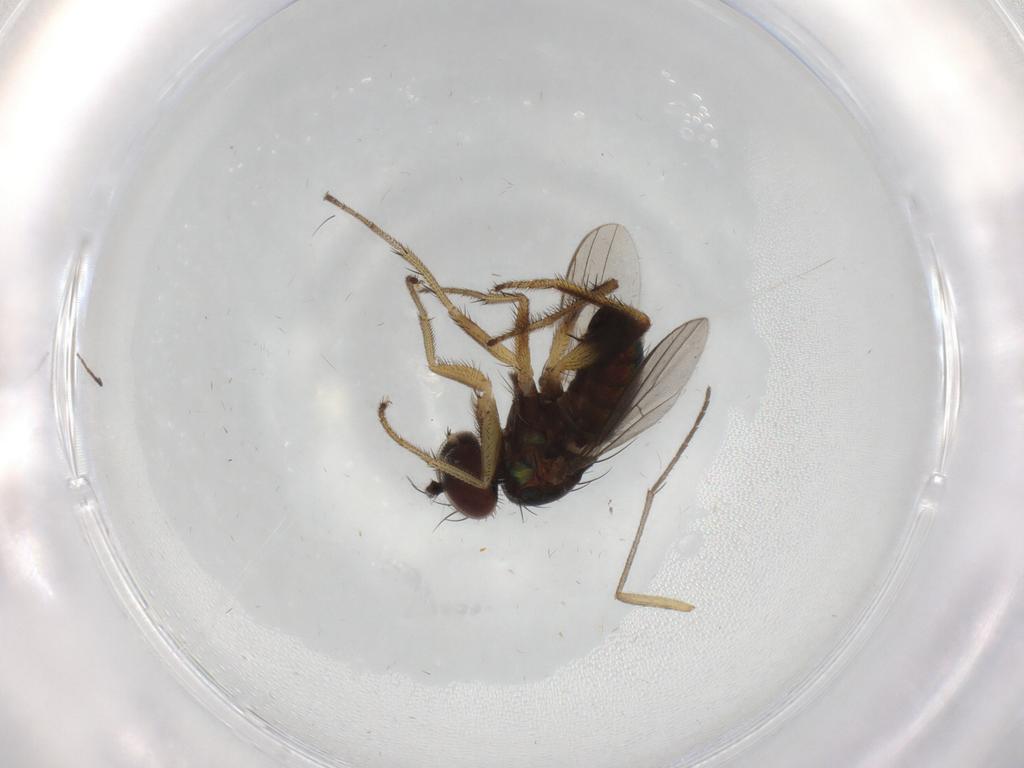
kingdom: Animalia
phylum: Arthropoda
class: Insecta
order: Diptera
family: Dolichopodidae
